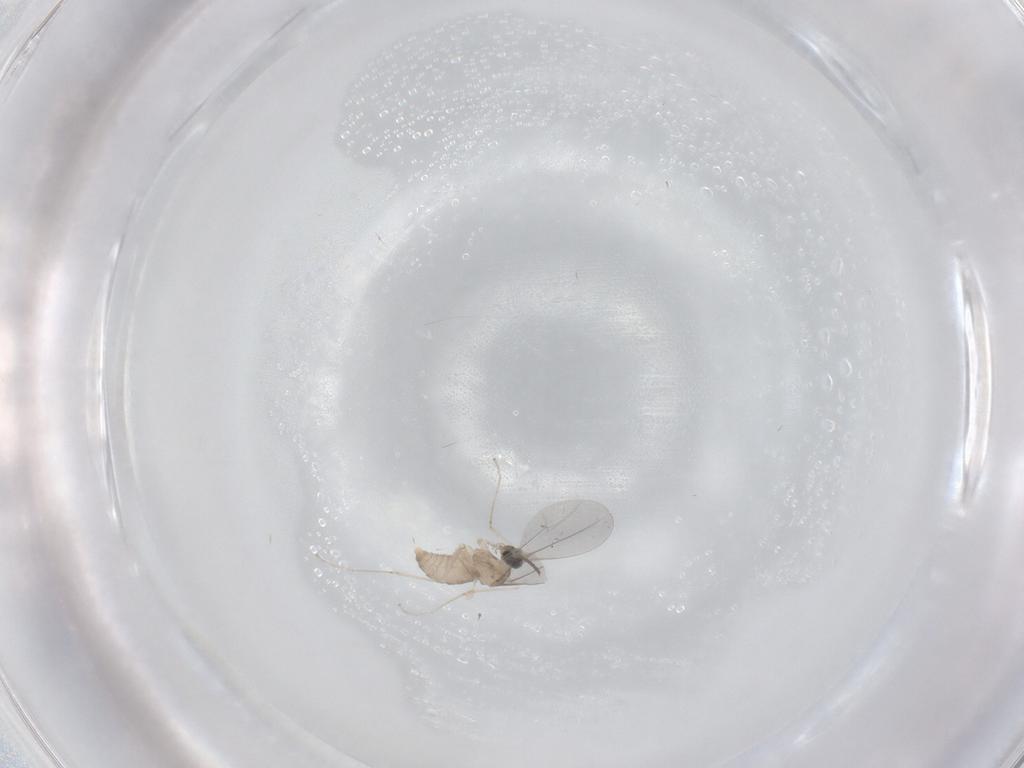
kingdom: Animalia
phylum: Arthropoda
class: Insecta
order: Diptera
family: Cecidomyiidae
